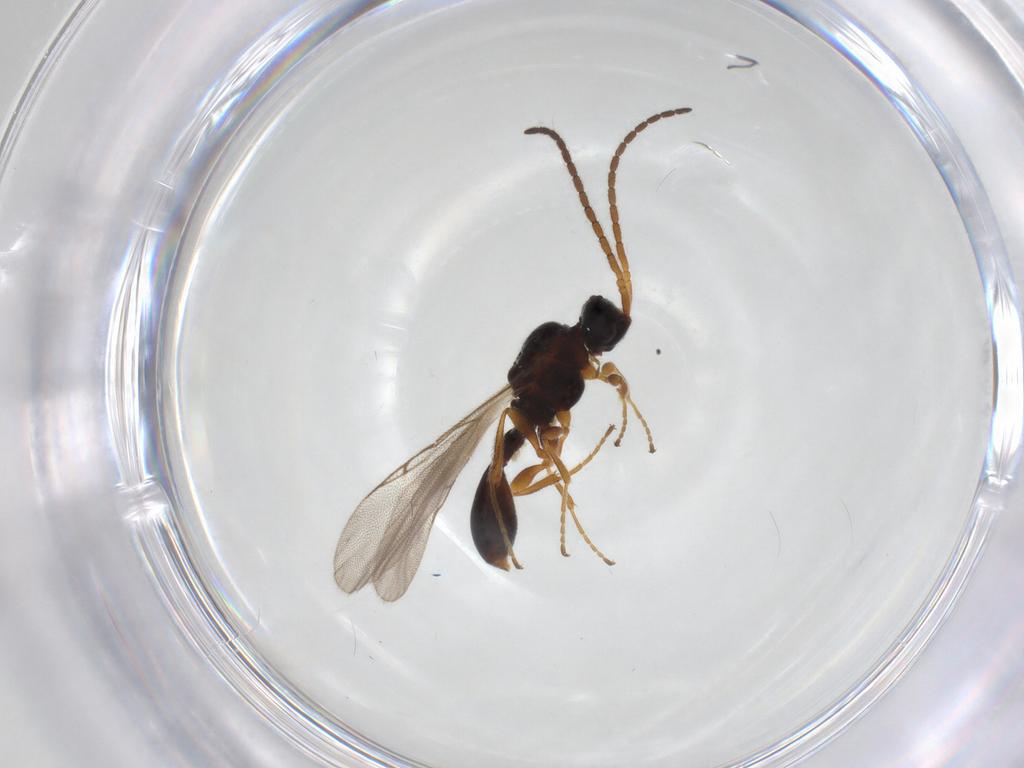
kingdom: Animalia
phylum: Arthropoda
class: Insecta
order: Hymenoptera
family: Diapriidae
